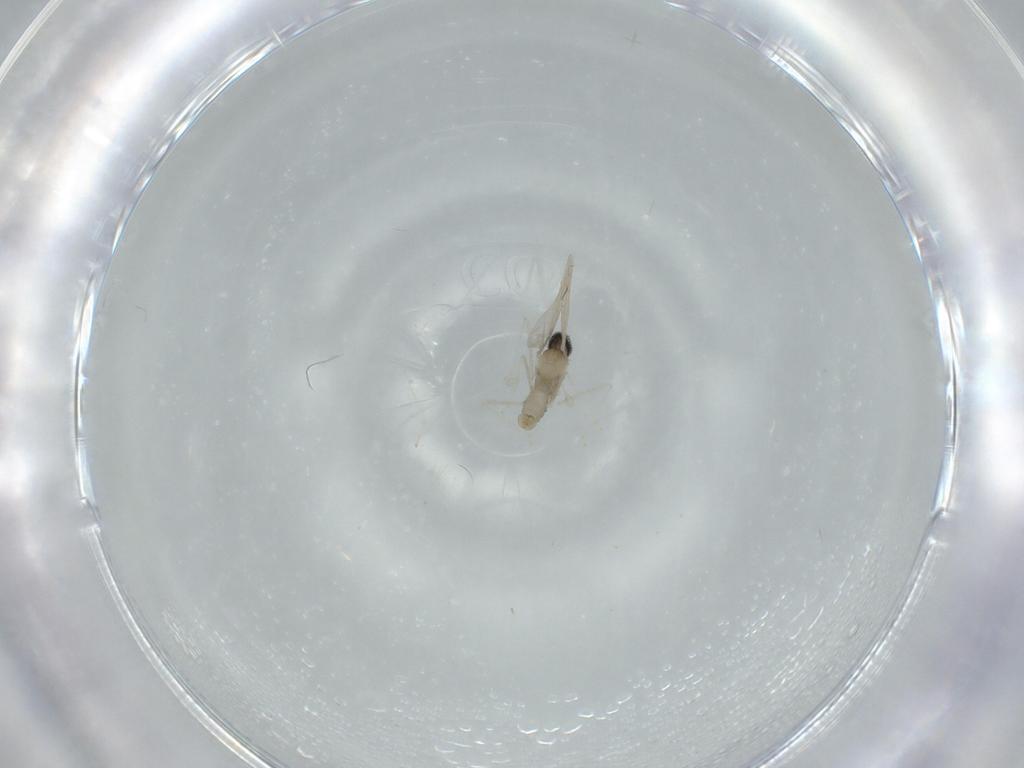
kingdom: Animalia
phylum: Arthropoda
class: Insecta
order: Diptera
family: Cecidomyiidae
